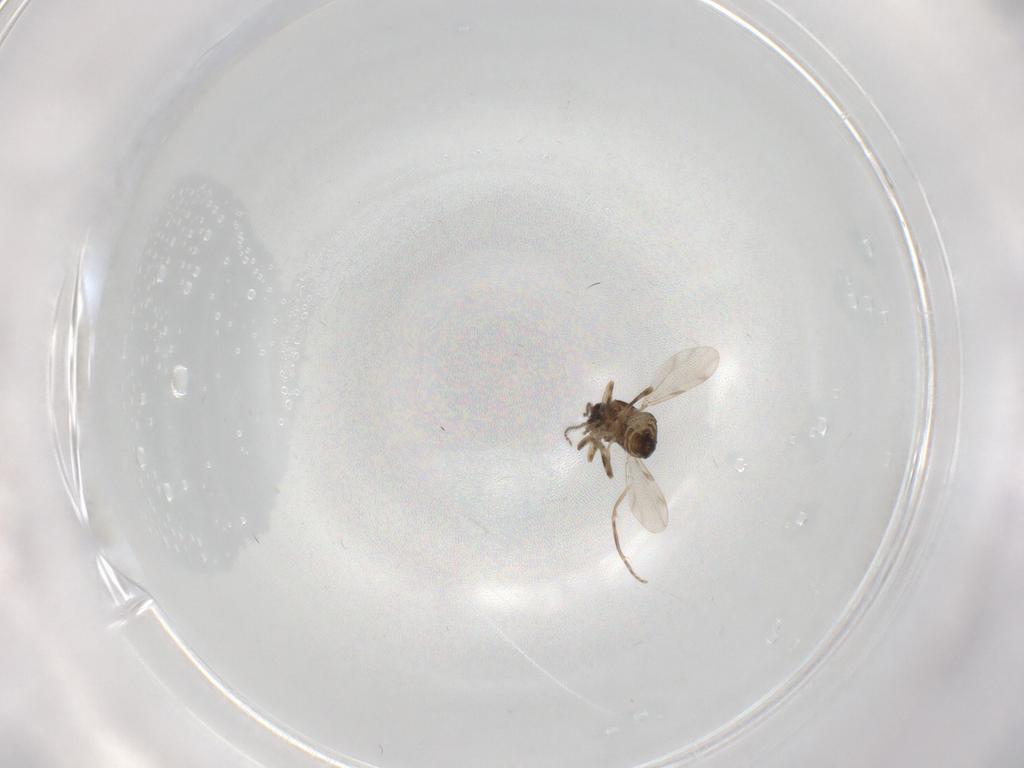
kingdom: Animalia
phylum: Arthropoda
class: Insecta
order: Diptera
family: Ceratopogonidae
